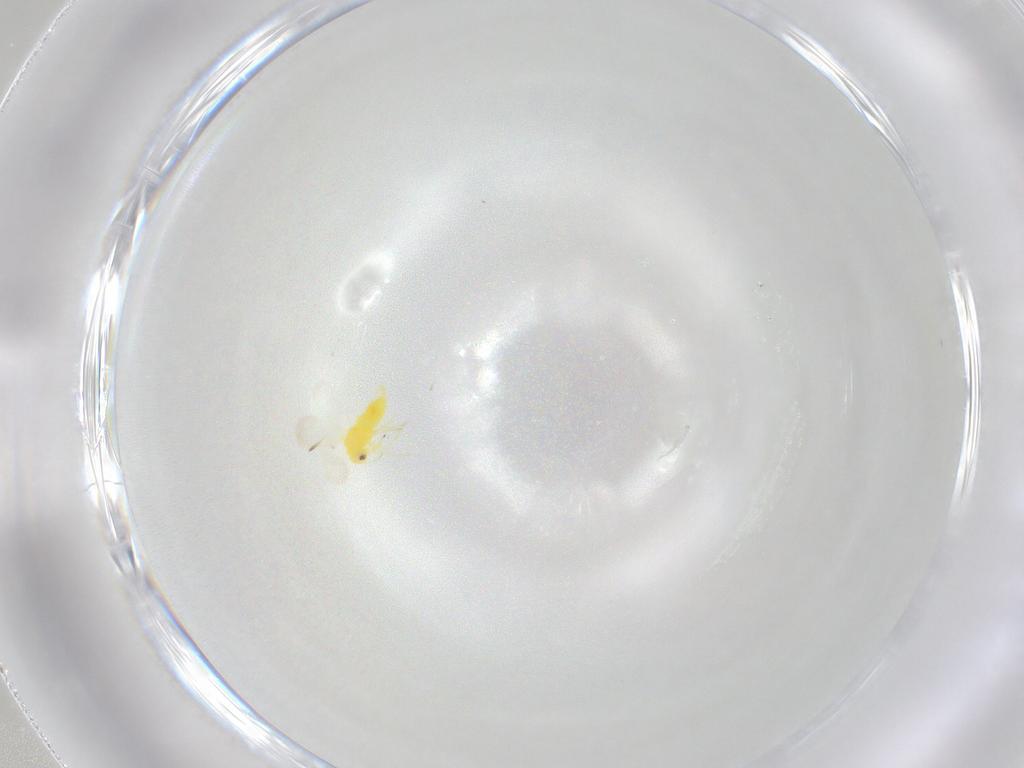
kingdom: Animalia
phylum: Arthropoda
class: Insecta
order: Hemiptera
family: Aleyrodidae
